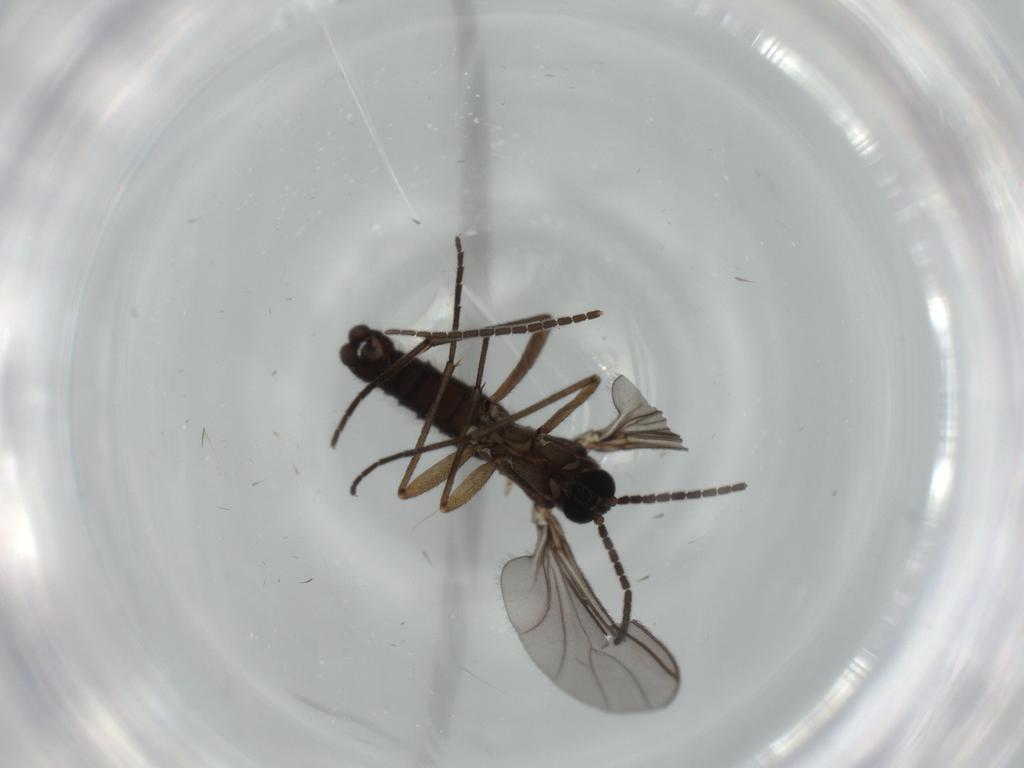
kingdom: Animalia
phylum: Arthropoda
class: Insecta
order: Diptera
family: Sciaridae
